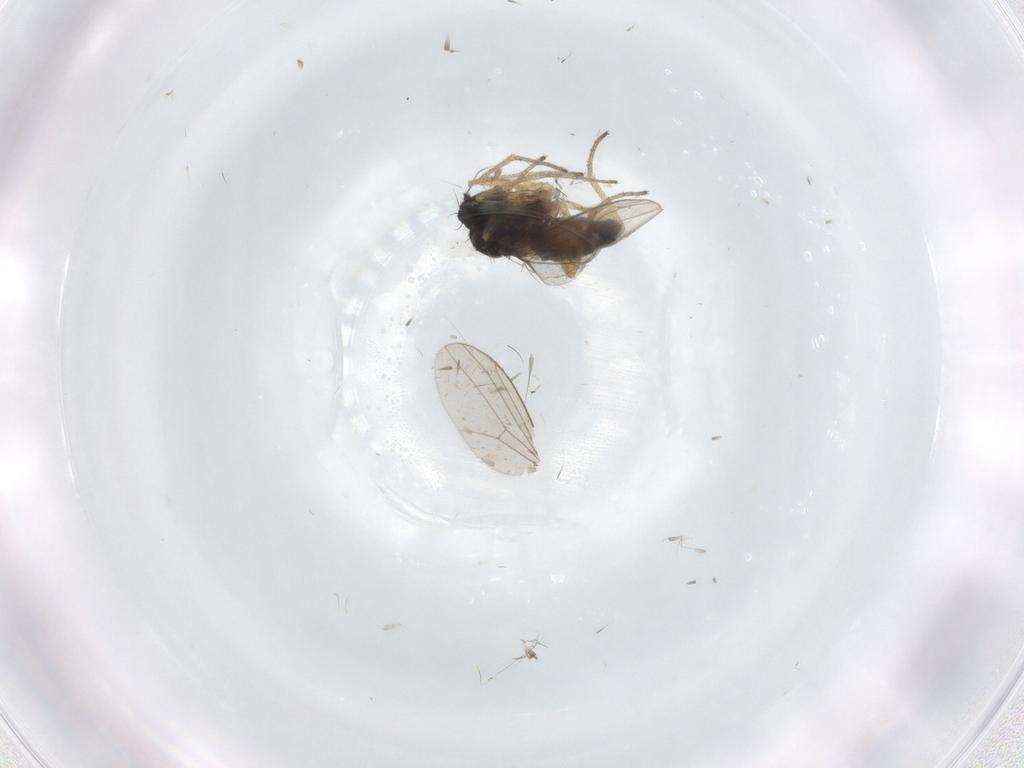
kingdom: Animalia
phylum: Arthropoda
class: Insecta
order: Diptera
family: Dolichopodidae
